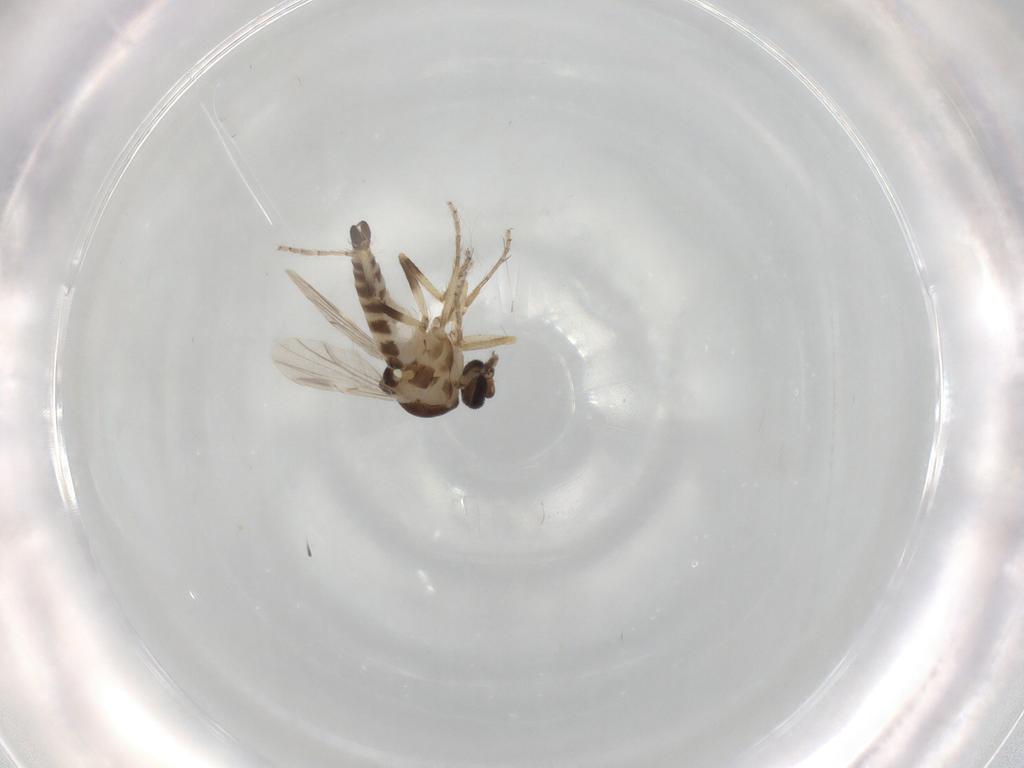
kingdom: Animalia
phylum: Arthropoda
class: Insecta
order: Diptera
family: Ceratopogonidae
